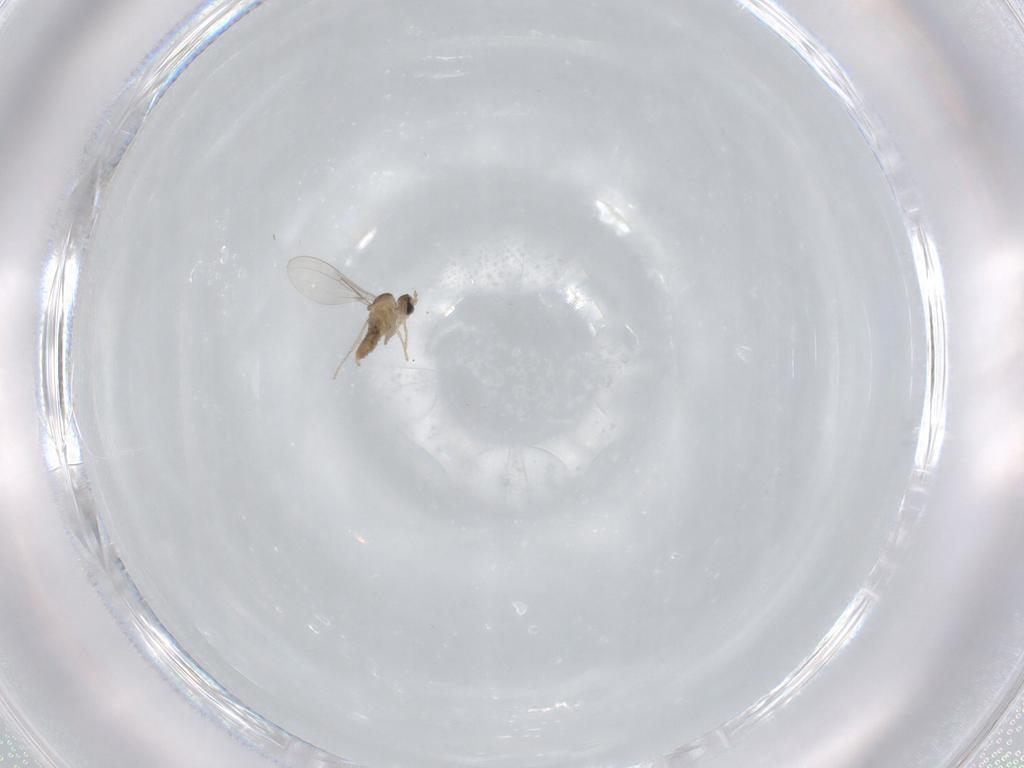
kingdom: Animalia
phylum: Arthropoda
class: Insecta
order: Diptera
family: Cecidomyiidae
